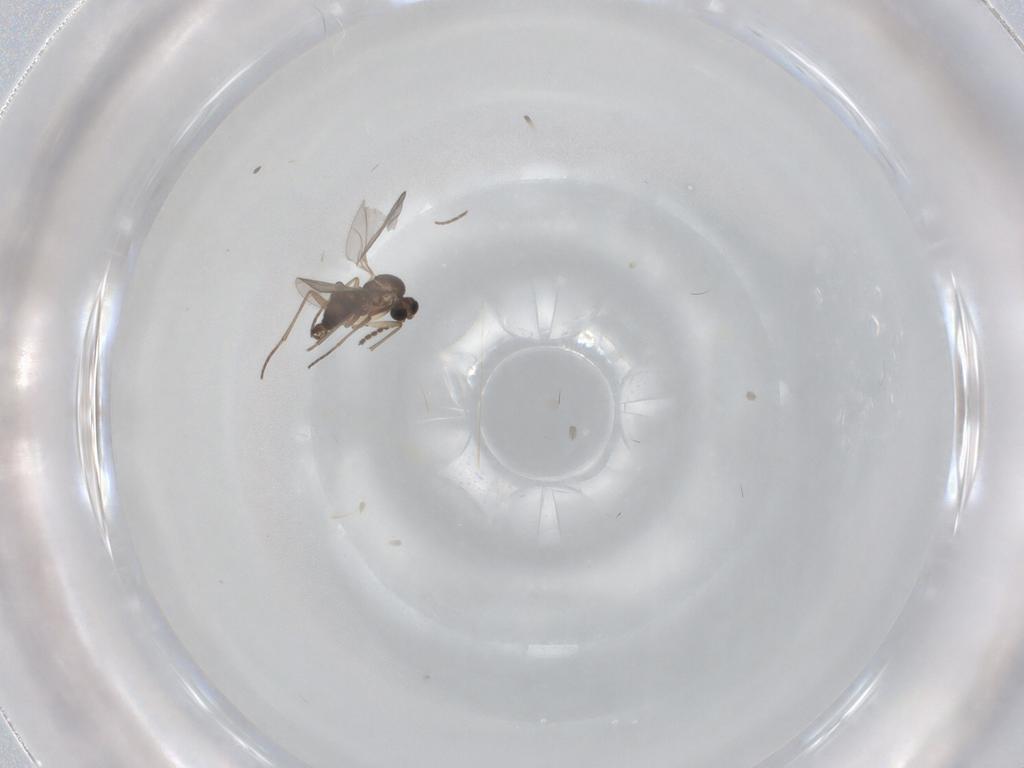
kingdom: Animalia
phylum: Arthropoda
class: Insecta
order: Diptera
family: Sciaridae
